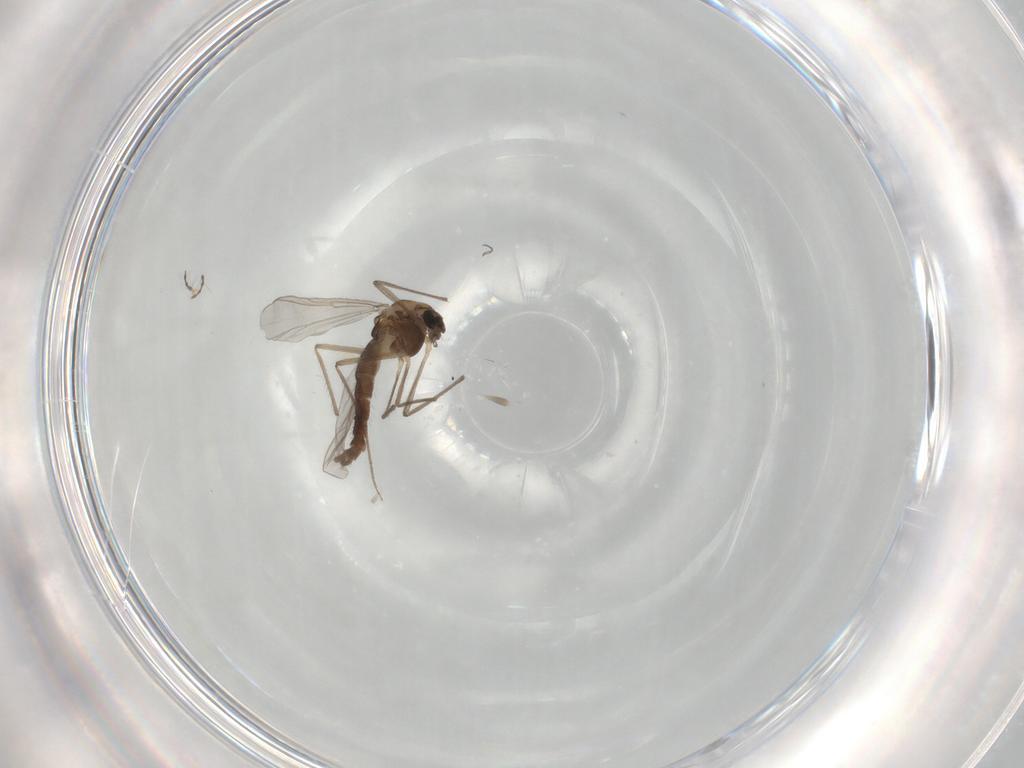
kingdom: Animalia
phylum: Arthropoda
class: Insecta
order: Diptera
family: Chironomidae
